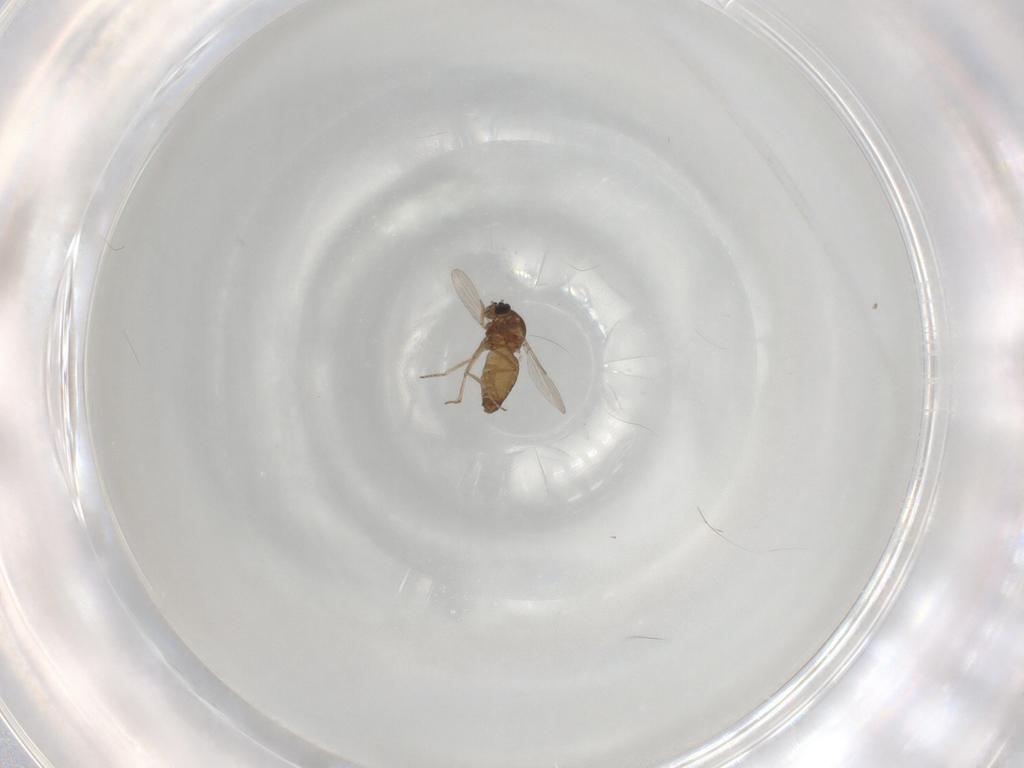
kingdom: Animalia
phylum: Arthropoda
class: Insecta
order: Diptera
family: Ceratopogonidae
